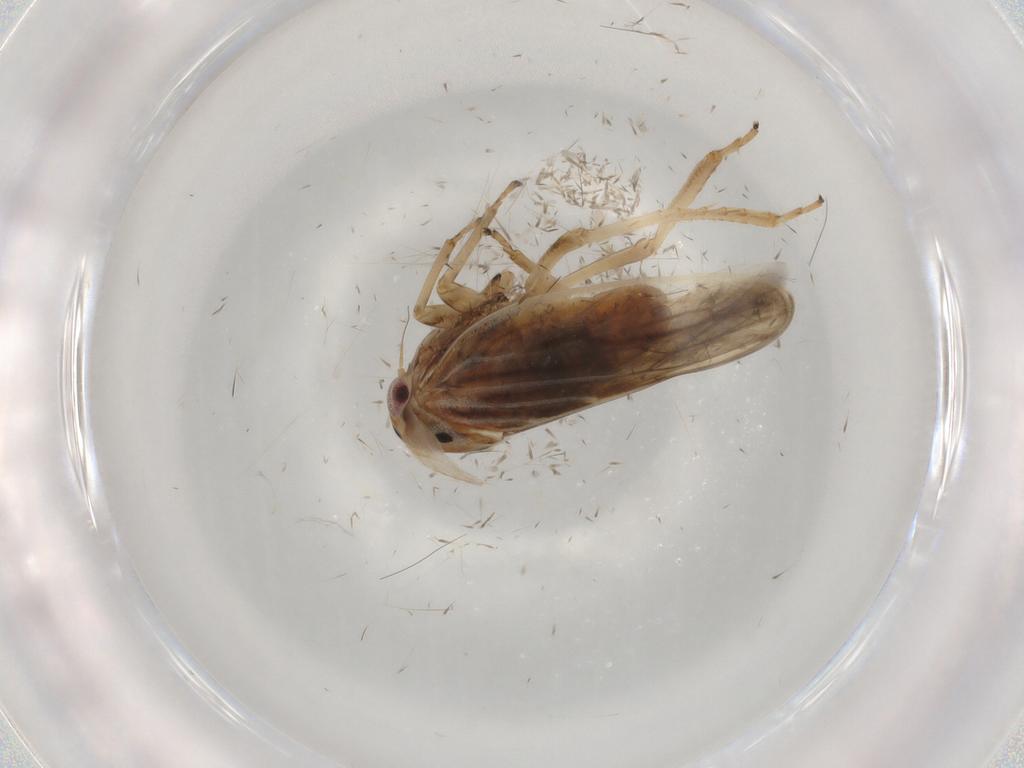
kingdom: Animalia
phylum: Arthropoda
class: Insecta
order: Hemiptera
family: Cicadellidae
